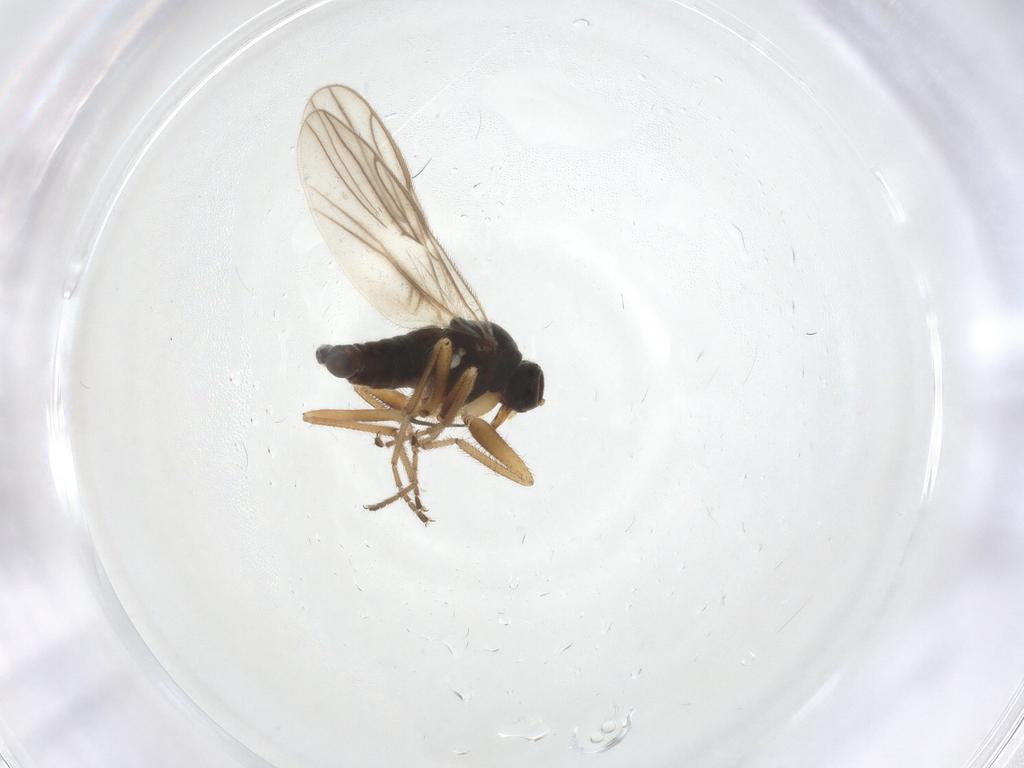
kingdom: Animalia
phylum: Arthropoda
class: Insecta
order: Diptera
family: Hybotidae
